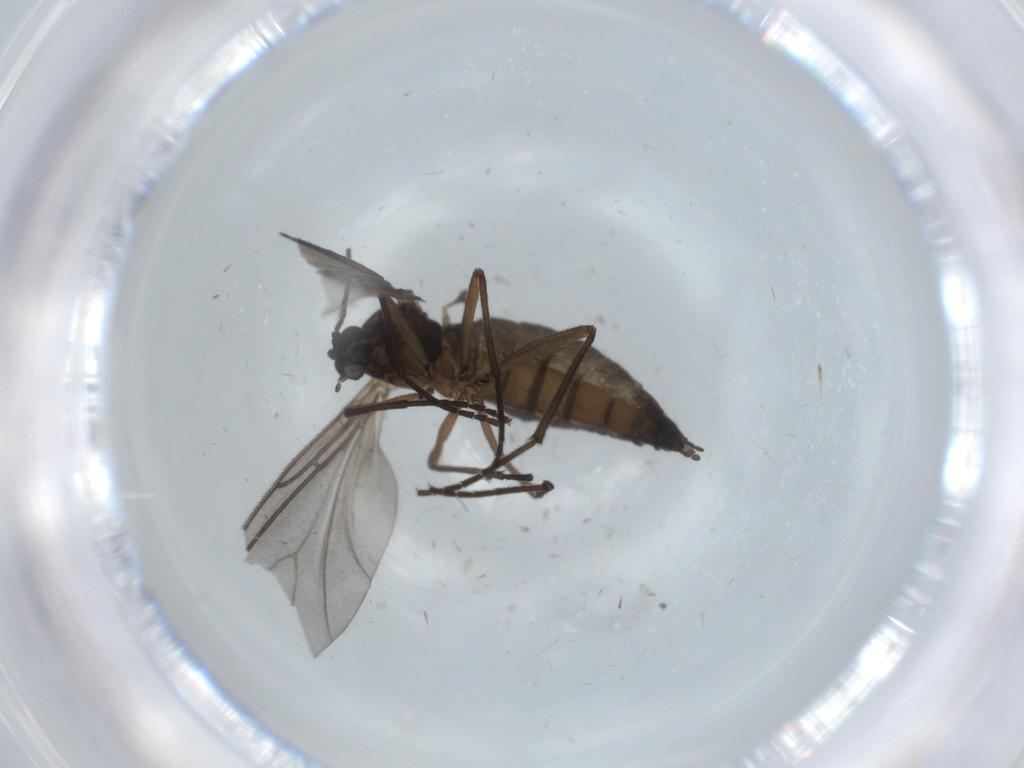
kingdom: Animalia
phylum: Arthropoda
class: Insecta
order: Diptera
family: Sciaridae
